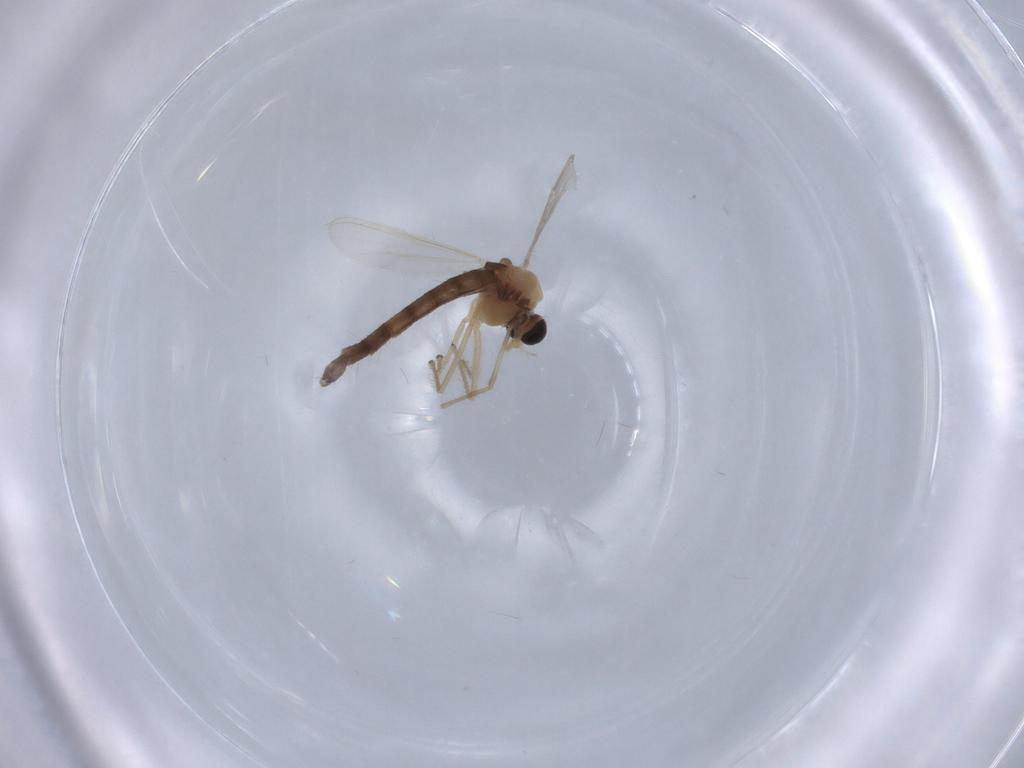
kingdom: Animalia
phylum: Arthropoda
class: Insecta
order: Diptera
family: Chironomidae
